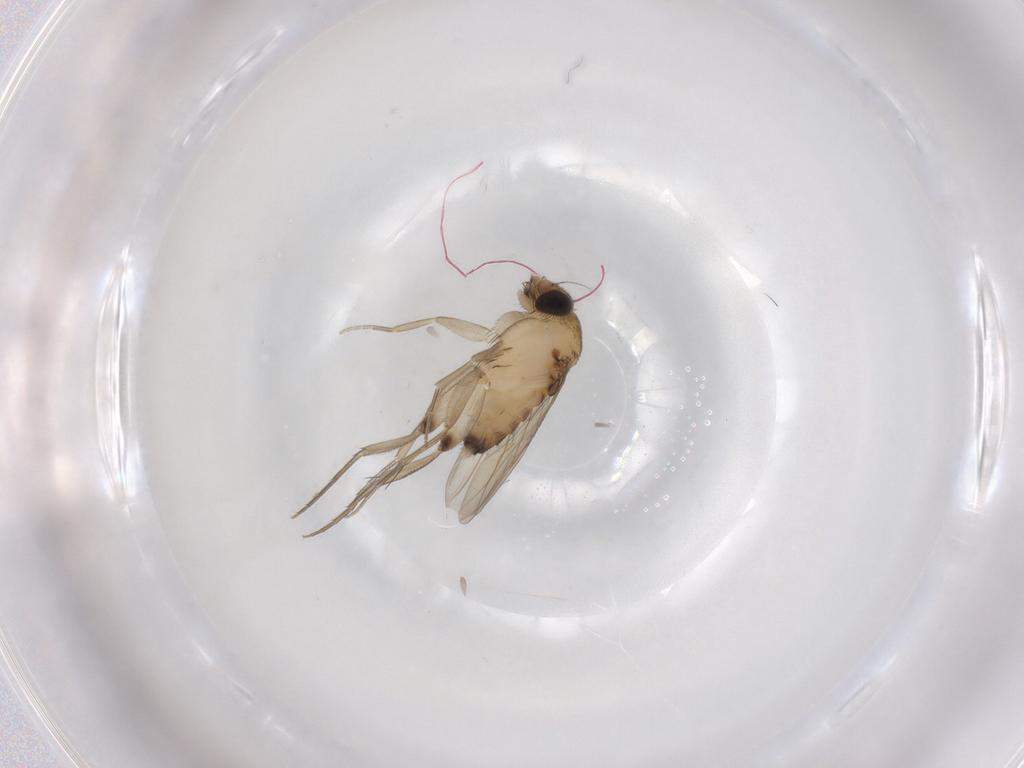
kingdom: Animalia
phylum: Arthropoda
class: Insecta
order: Diptera
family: Phoridae
